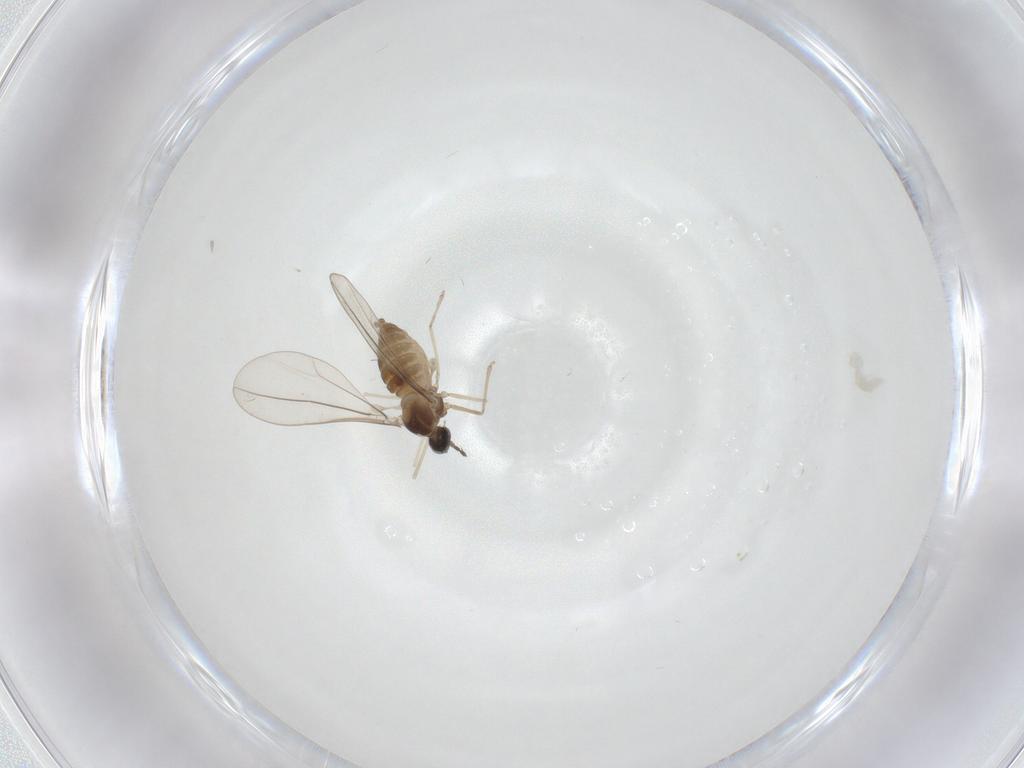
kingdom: Animalia
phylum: Arthropoda
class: Insecta
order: Diptera
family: Cecidomyiidae
